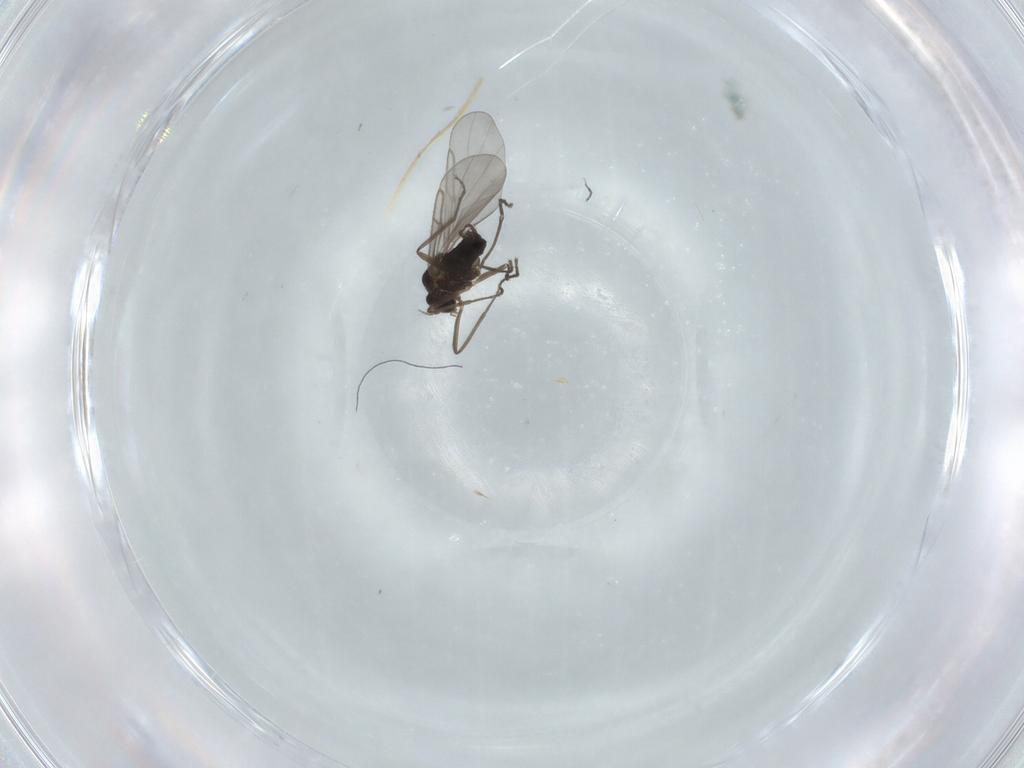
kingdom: Animalia
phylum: Arthropoda
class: Insecta
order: Diptera
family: Cecidomyiidae
